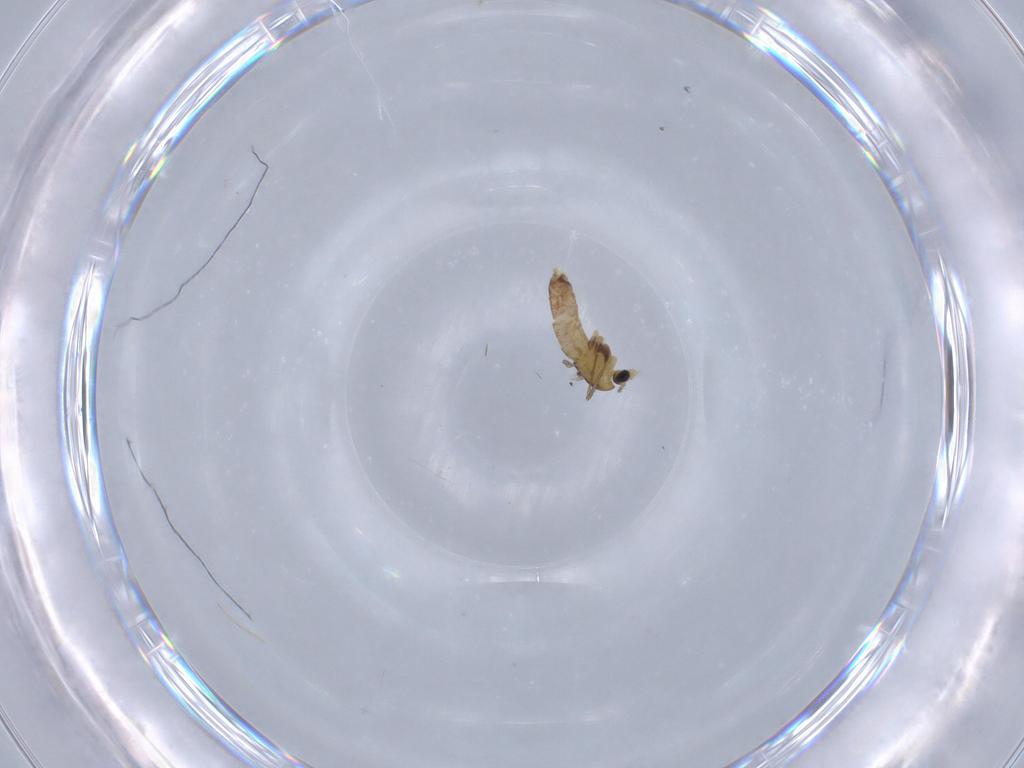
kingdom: Animalia
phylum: Arthropoda
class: Insecta
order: Diptera
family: Chironomidae
